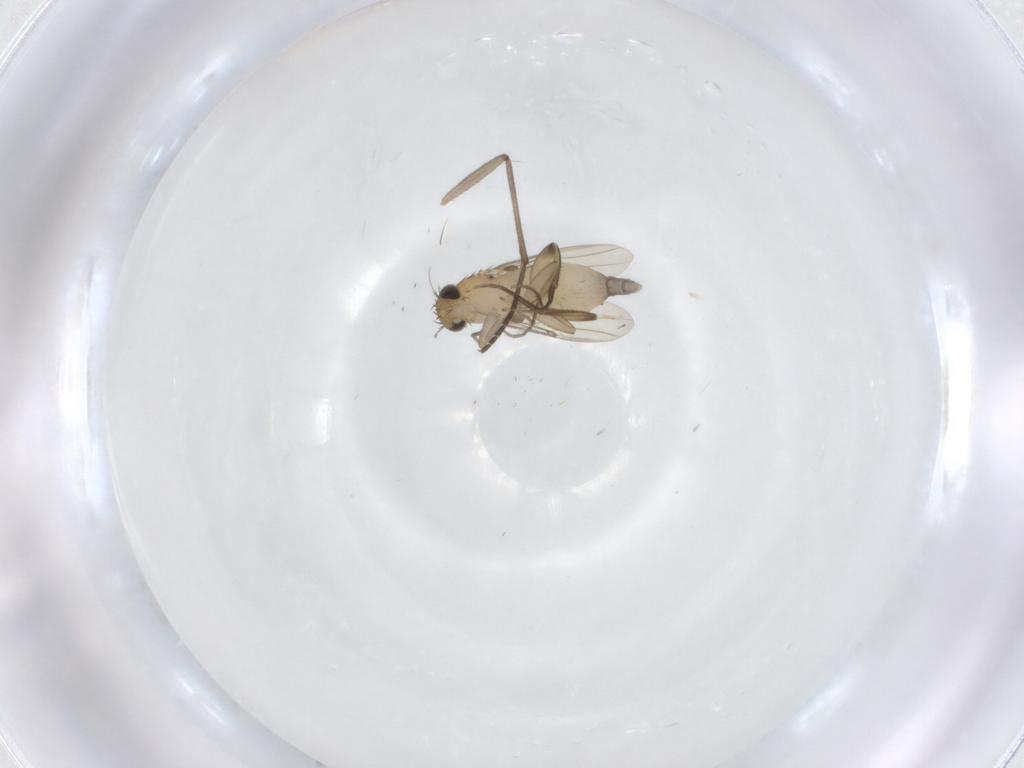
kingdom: Animalia
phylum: Arthropoda
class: Insecta
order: Diptera
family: Phoridae
